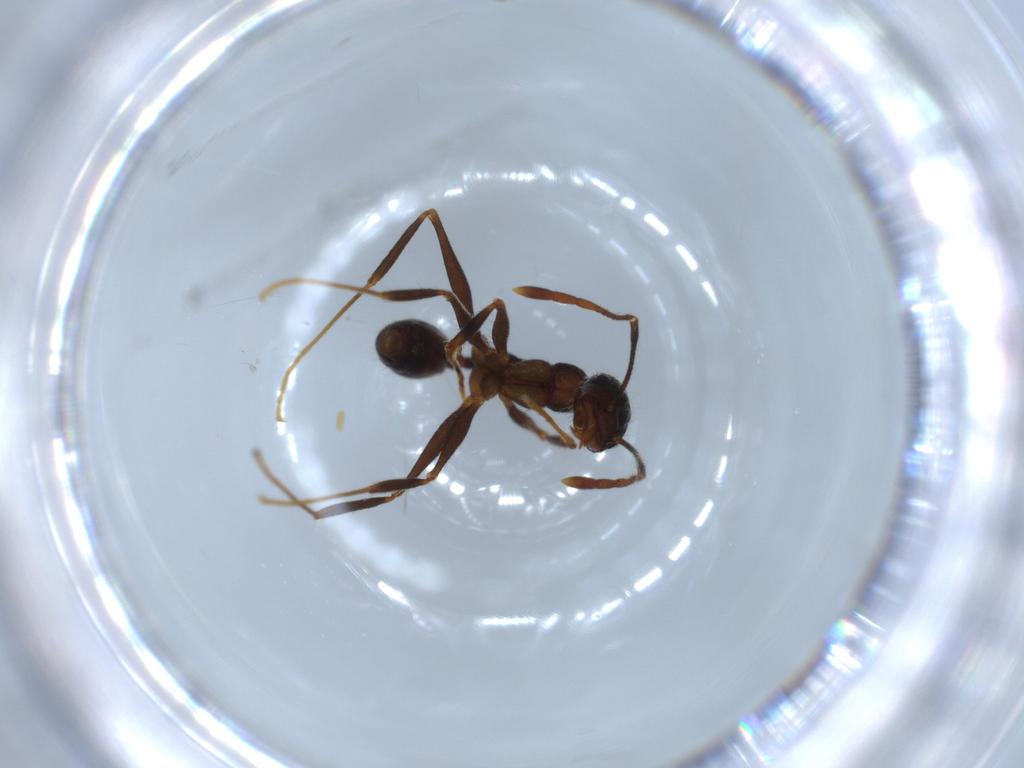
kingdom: Animalia
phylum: Arthropoda
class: Insecta
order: Hymenoptera
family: Formicidae
